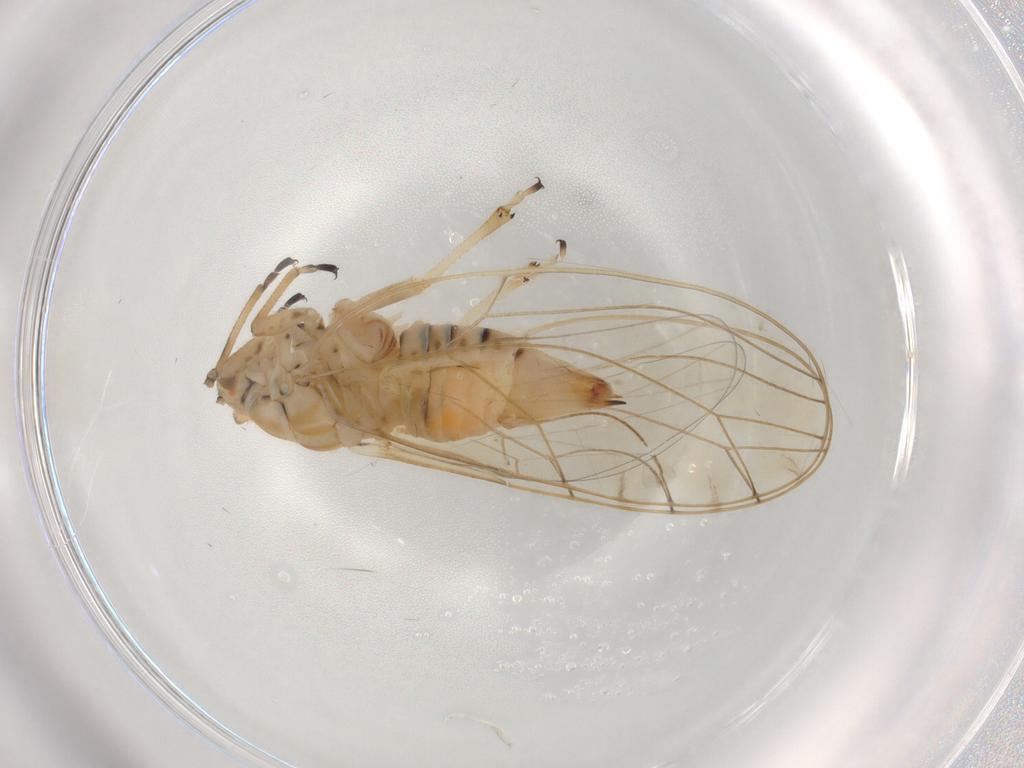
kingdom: Animalia
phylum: Arthropoda
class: Insecta
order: Hemiptera
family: Triozidae
